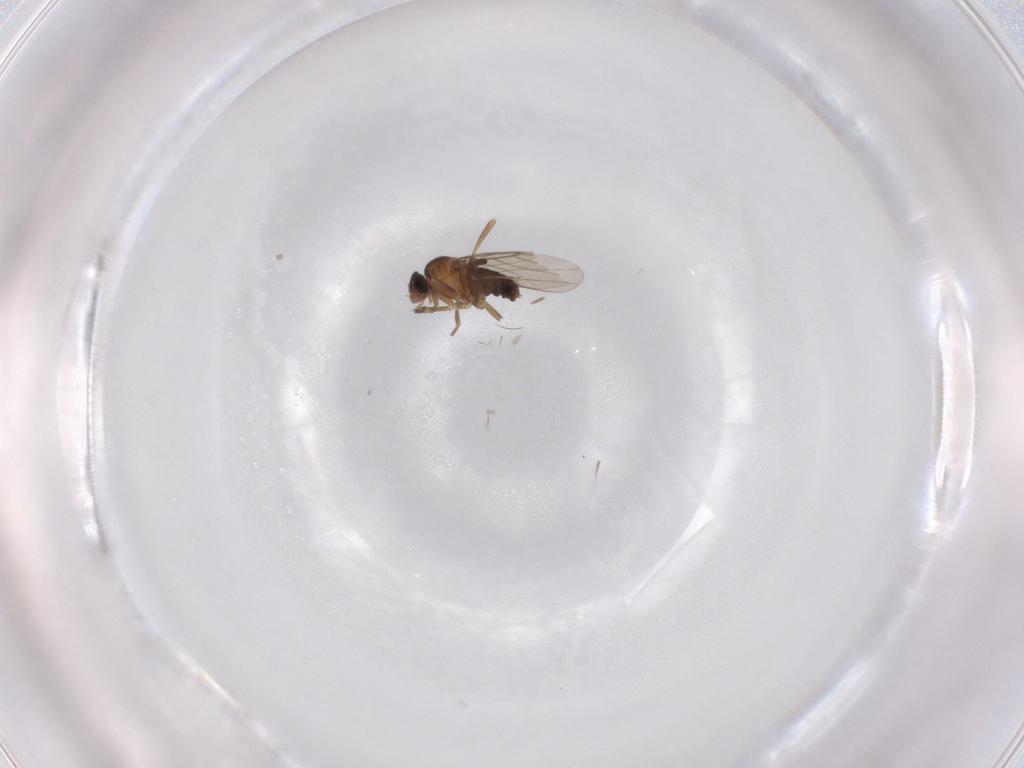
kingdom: Animalia
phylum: Arthropoda
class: Insecta
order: Diptera
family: Phoridae
